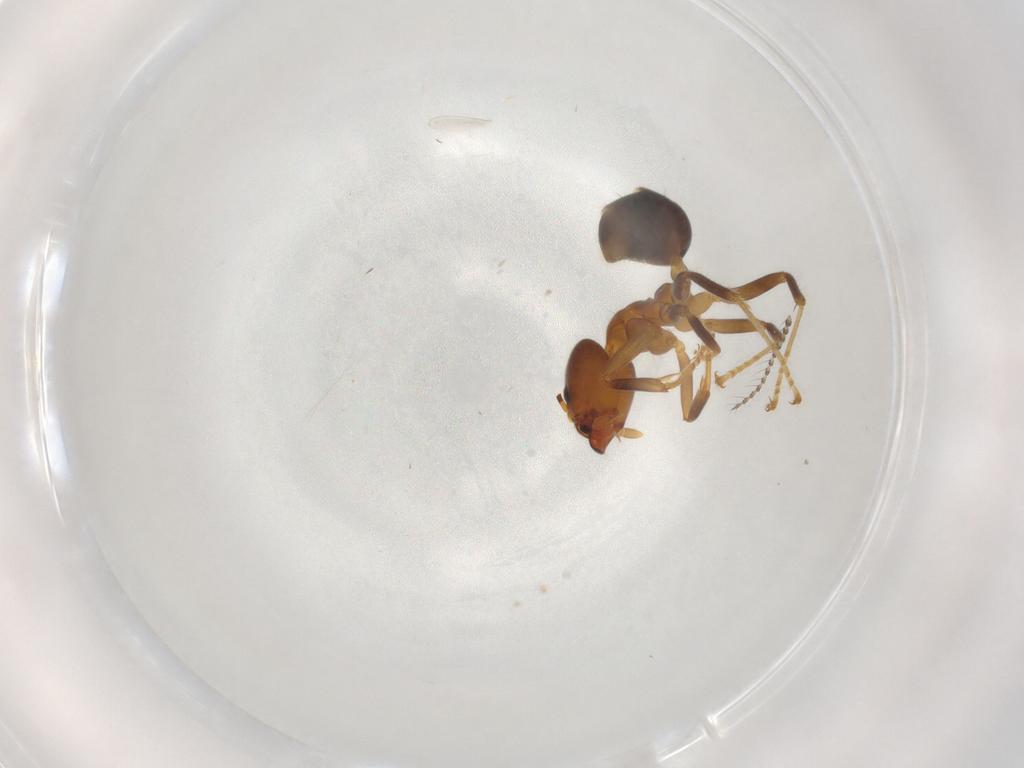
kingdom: Animalia
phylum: Arthropoda
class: Insecta
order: Hymenoptera
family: Formicidae
